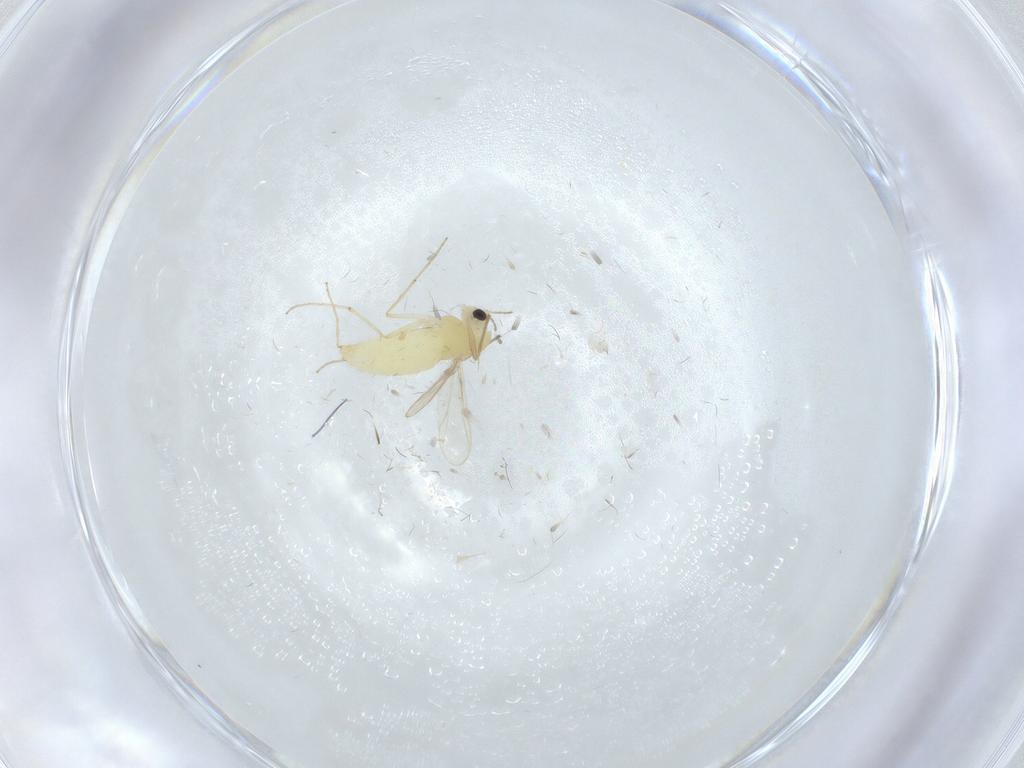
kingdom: Animalia
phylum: Arthropoda
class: Insecta
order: Diptera
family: Chironomidae
